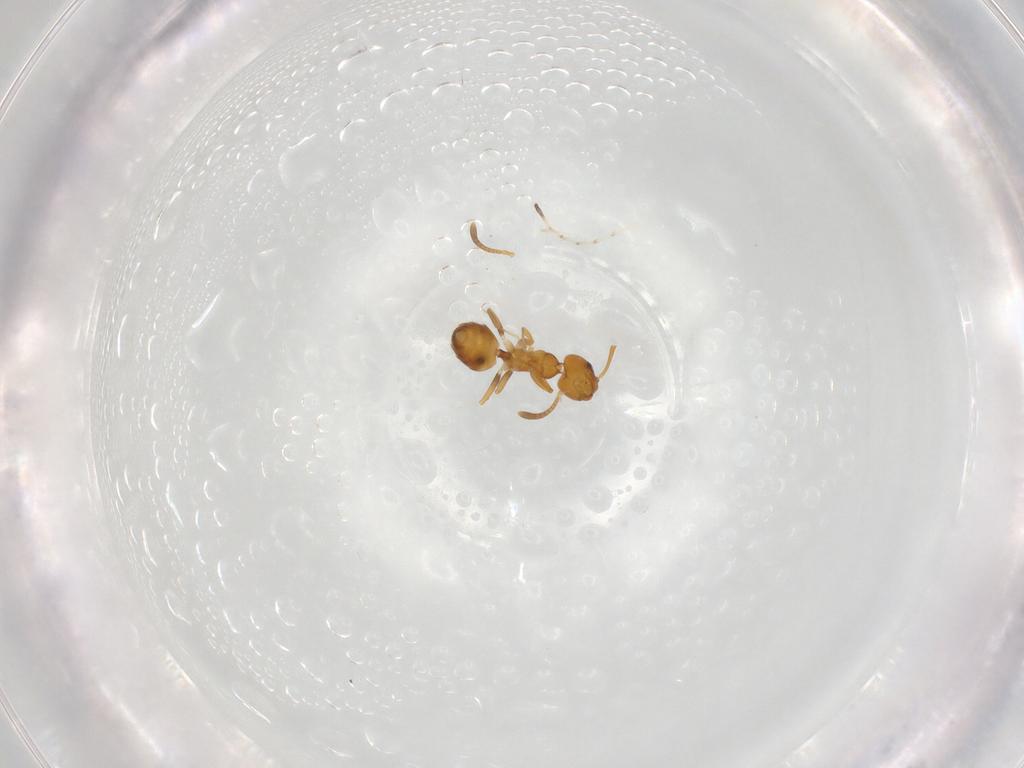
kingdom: Animalia
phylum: Arthropoda
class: Insecta
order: Hymenoptera
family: Formicidae
